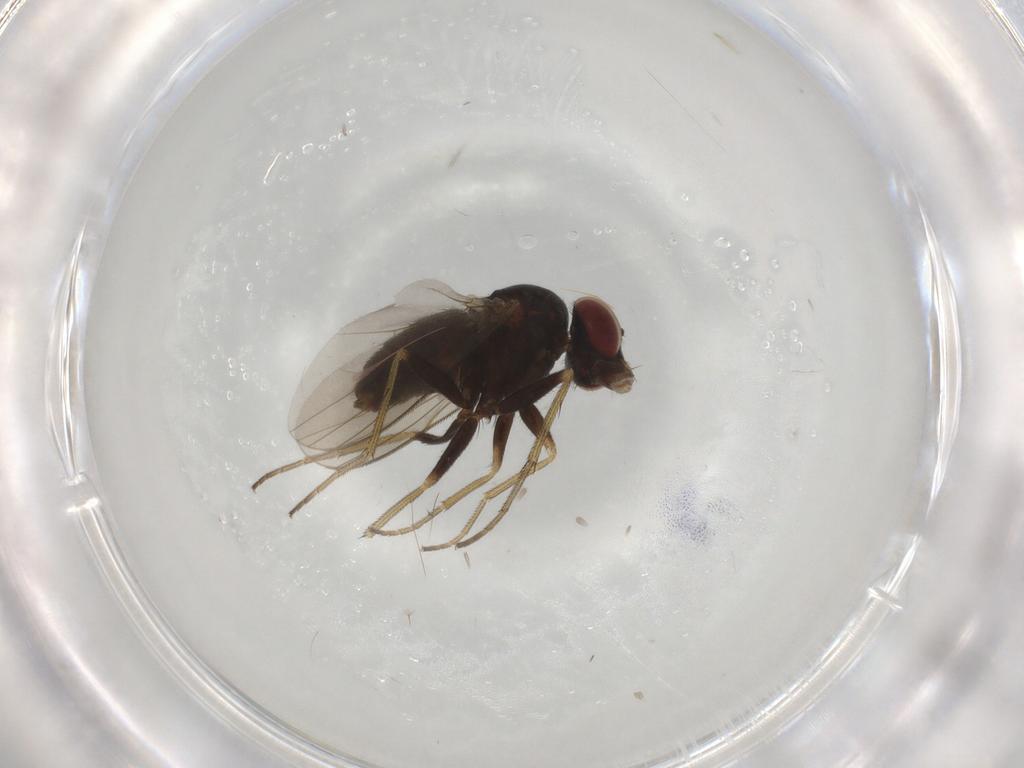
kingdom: Animalia
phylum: Arthropoda
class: Insecta
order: Diptera
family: Dolichopodidae
